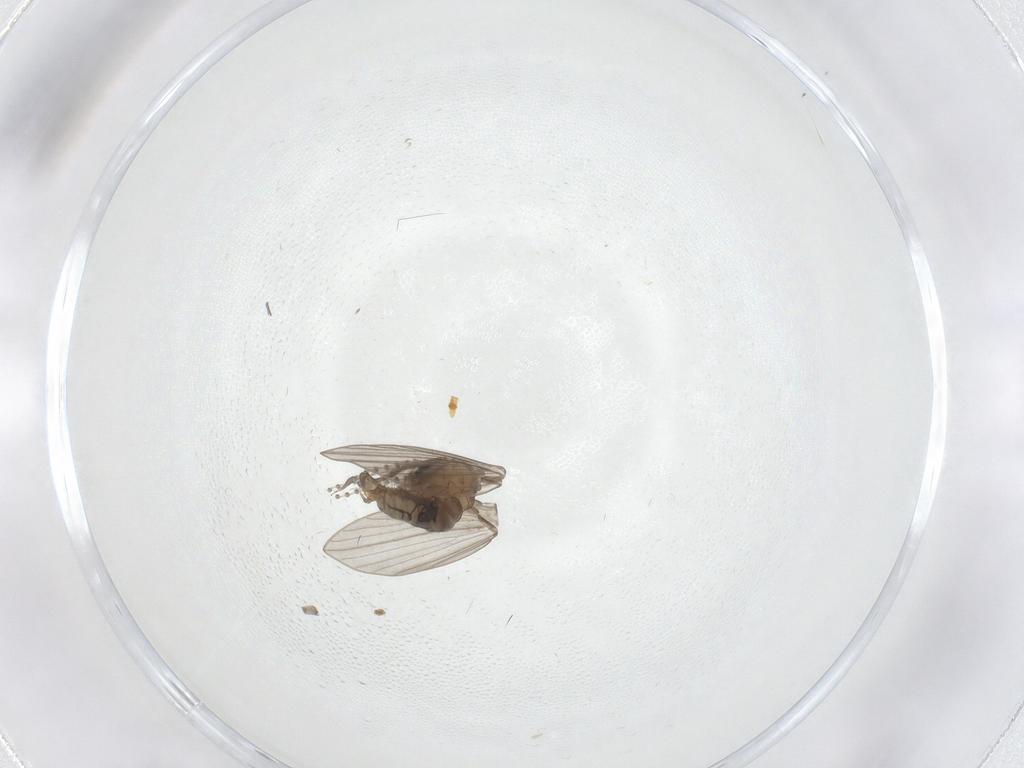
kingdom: Animalia
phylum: Arthropoda
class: Insecta
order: Diptera
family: Psychodidae
